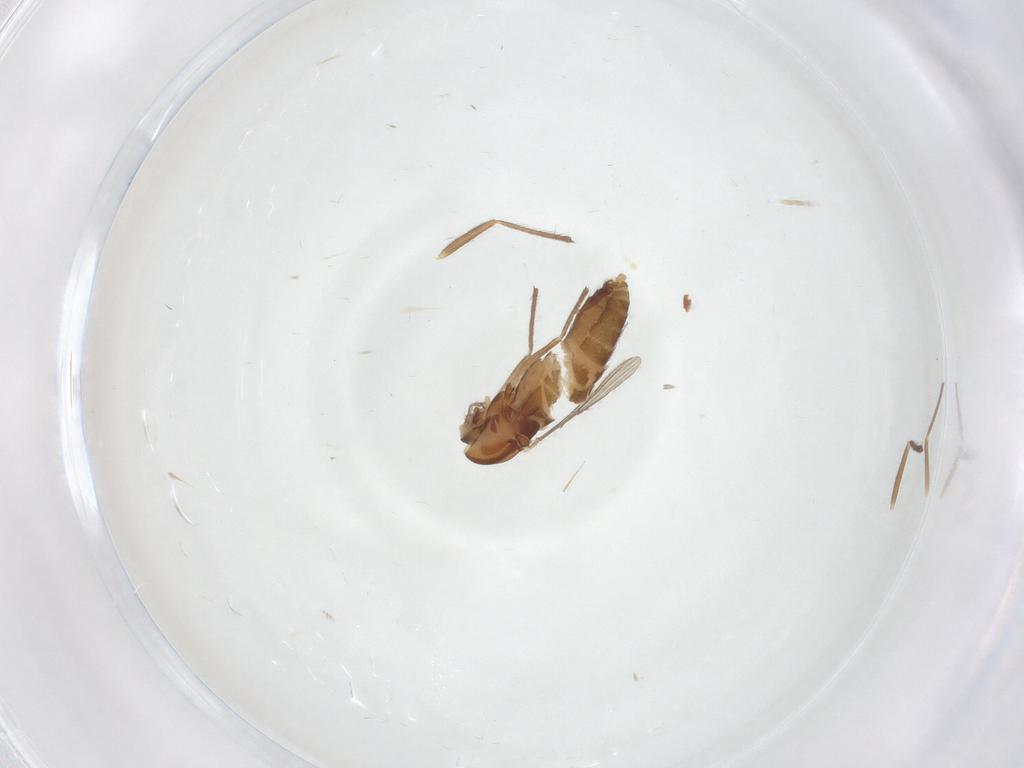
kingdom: Animalia
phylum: Arthropoda
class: Insecta
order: Diptera
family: Chironomidae
